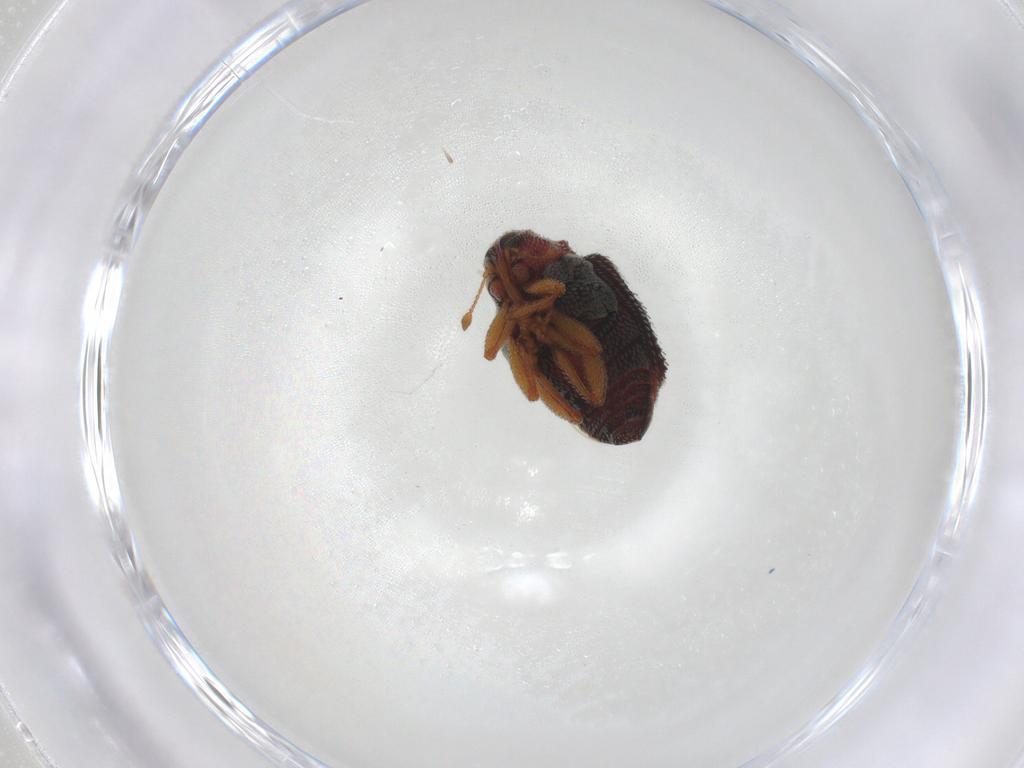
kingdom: Animalia
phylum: Arthropoda
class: Insecta
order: Coleoptera
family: Curculionidae
